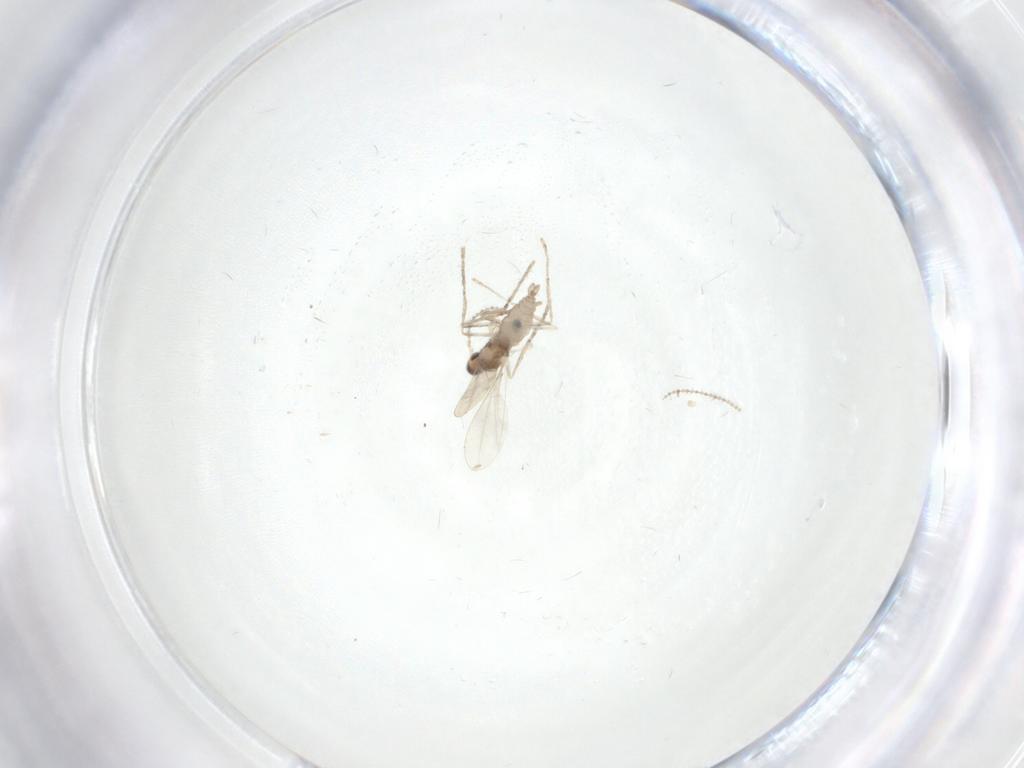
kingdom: Animalia
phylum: Arthropoda
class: Insecta
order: Diptera
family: Cecidomyiidae
